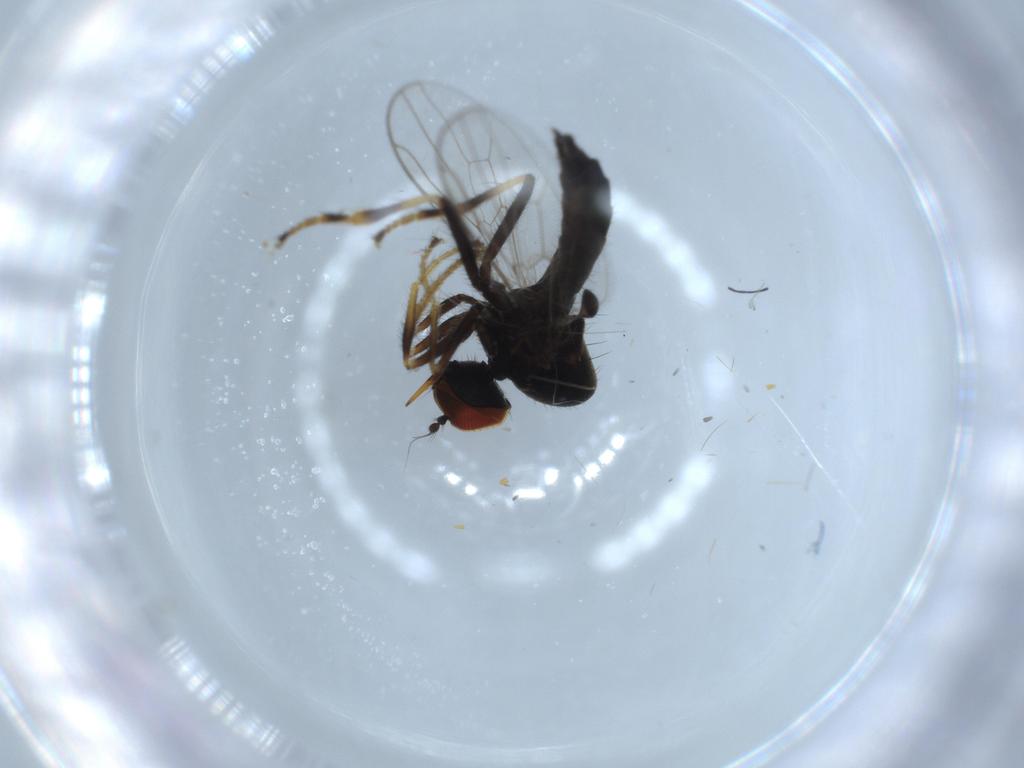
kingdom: Animalia
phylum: Arthropoda
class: Insecta
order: Diptera
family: Hybotidae
